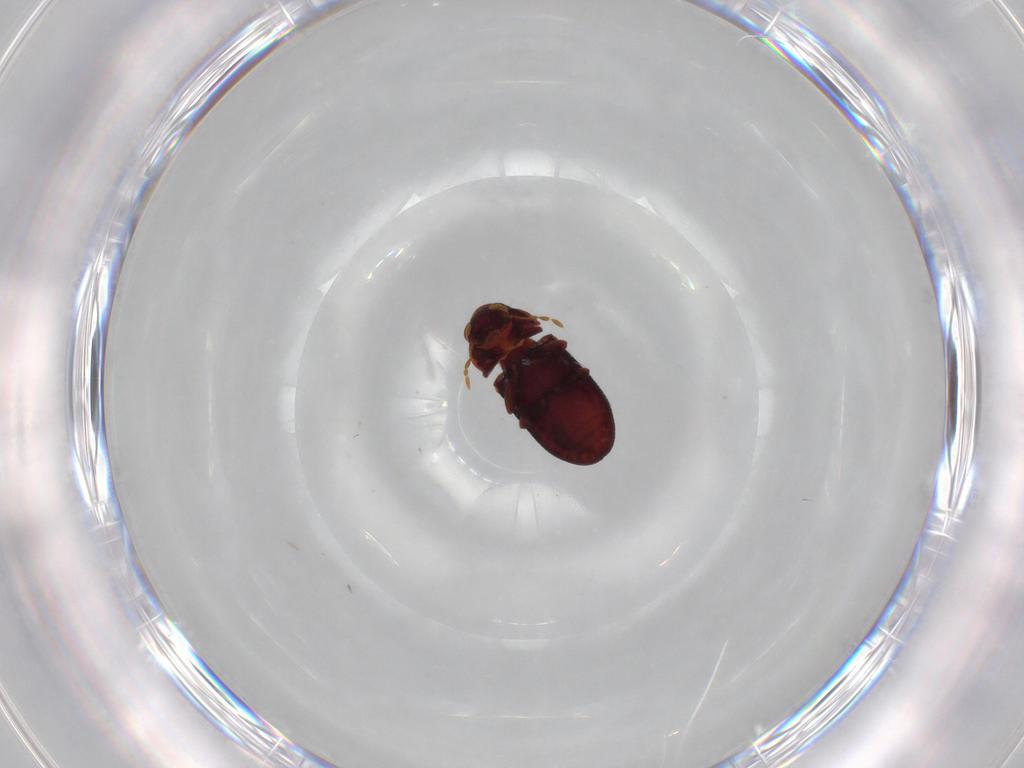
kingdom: Animalia
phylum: Arthropoda
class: Insecta
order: Coleoptera
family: Ptinidae
